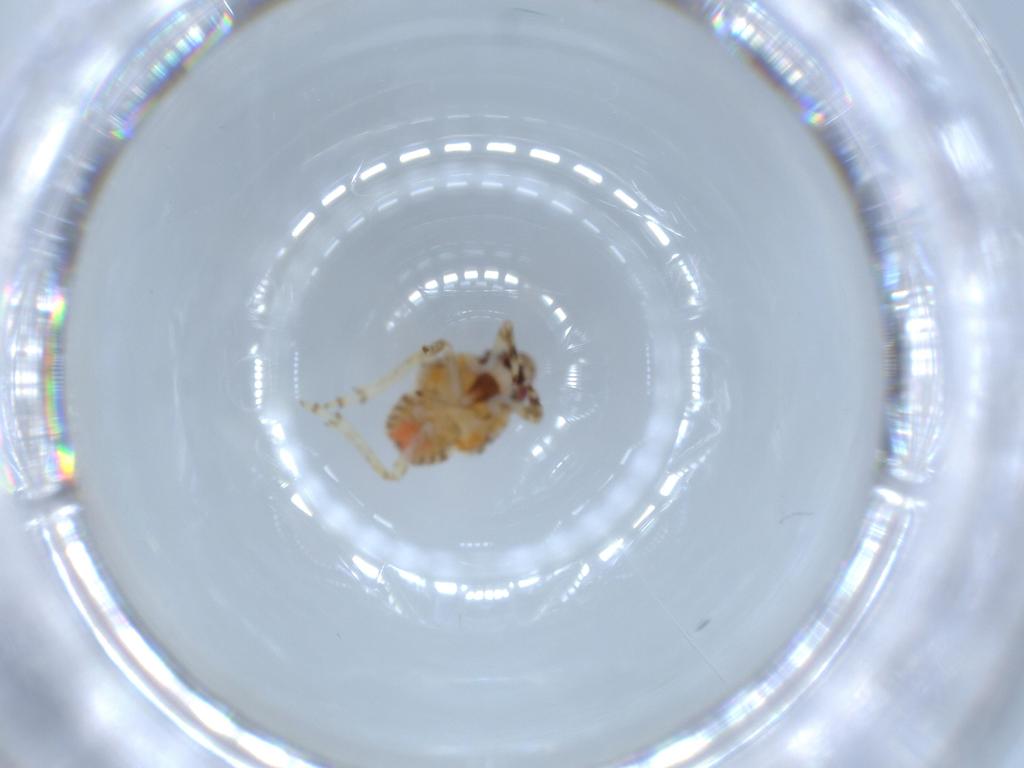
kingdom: Animalia
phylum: Arthropoda
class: Insecta
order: Hemiptera
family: Issidae
